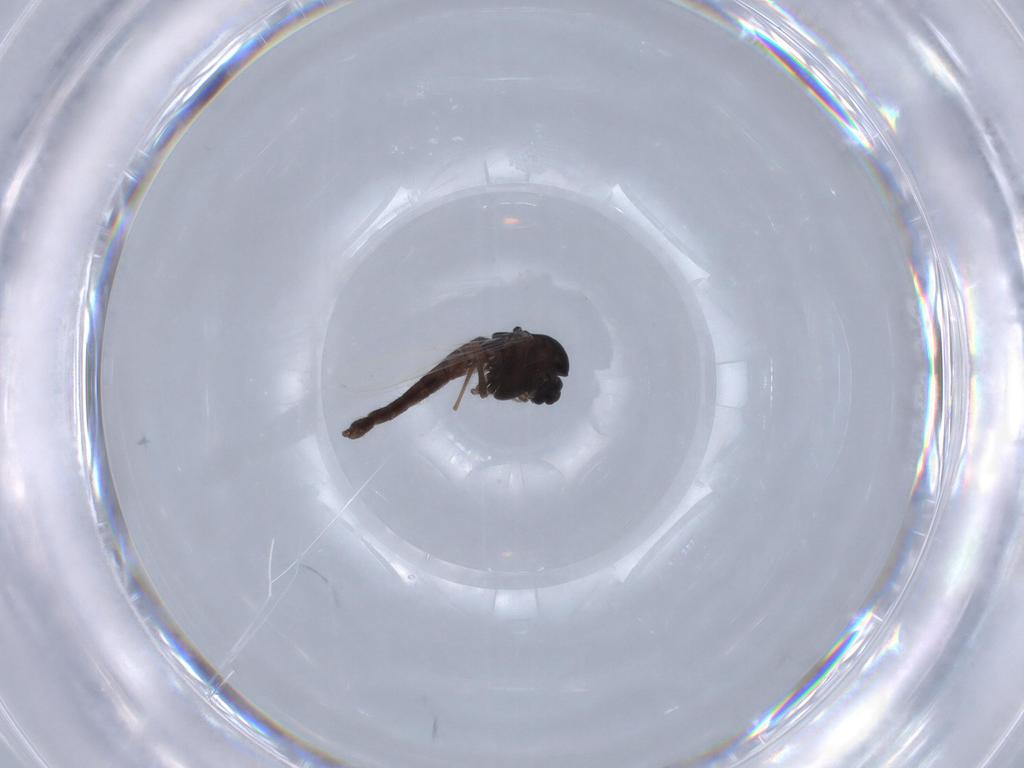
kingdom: Animalia
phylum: Arthropoda
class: Insecta
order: Diptera
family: Chironomidae
